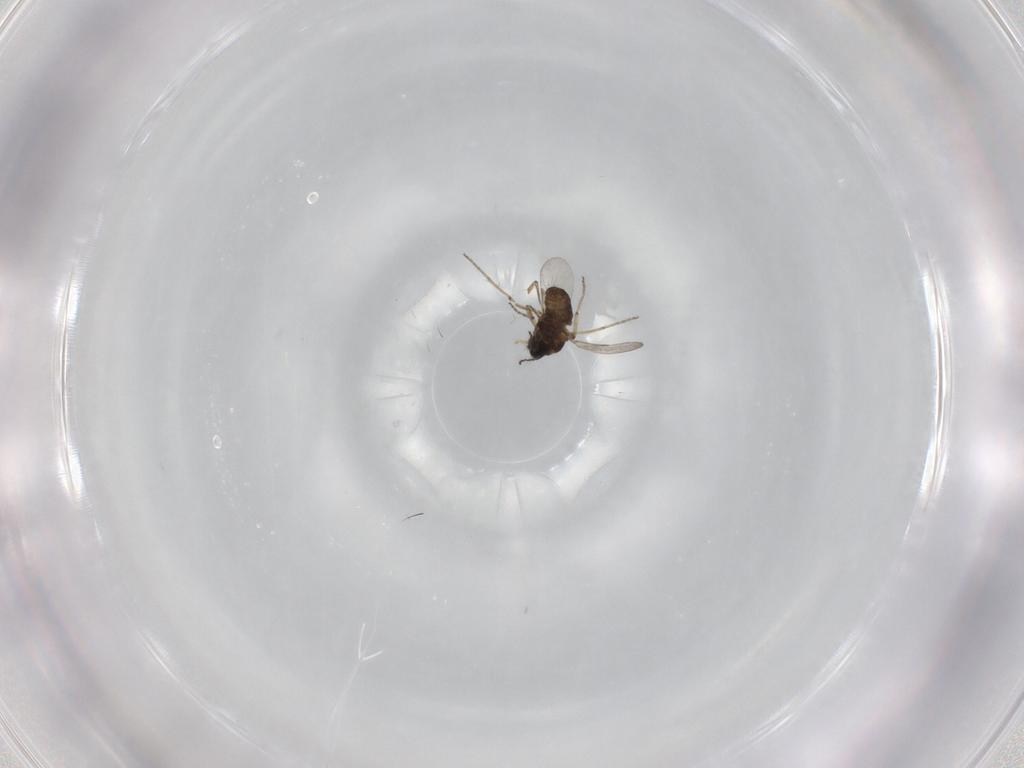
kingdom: Animalia
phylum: Arthropoda
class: Insecta
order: Diptera
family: Ceratopogonidae
